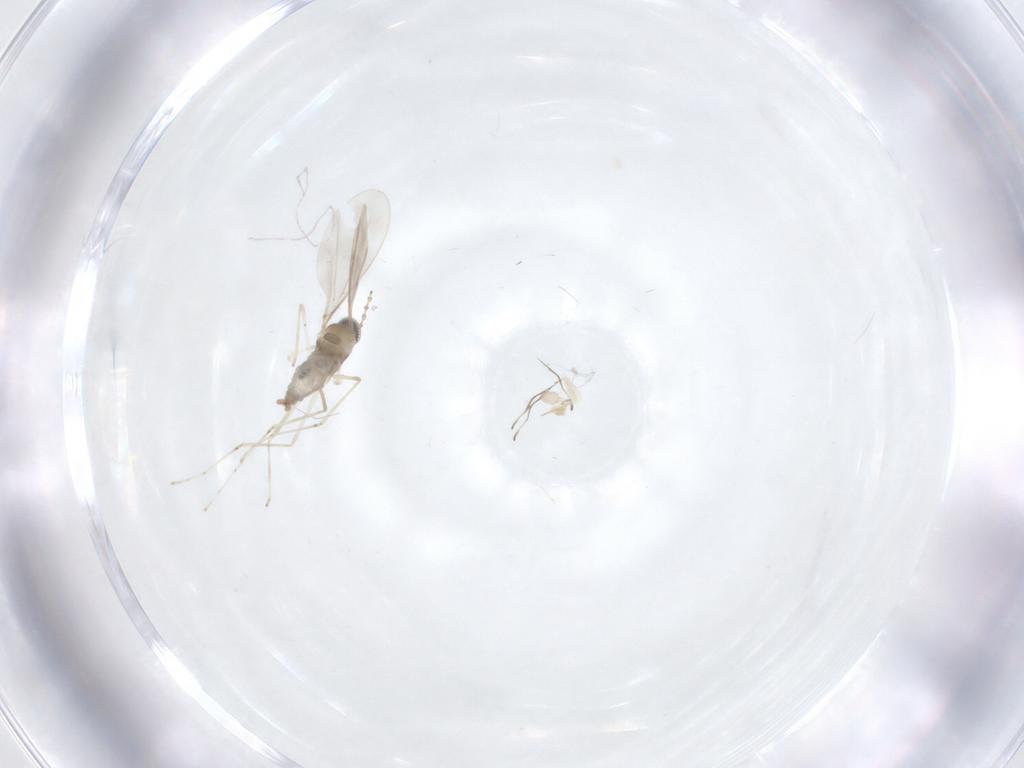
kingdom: Animalia
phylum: Arthropoda
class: Insecta
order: Diptera
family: Cecidomyiidae
